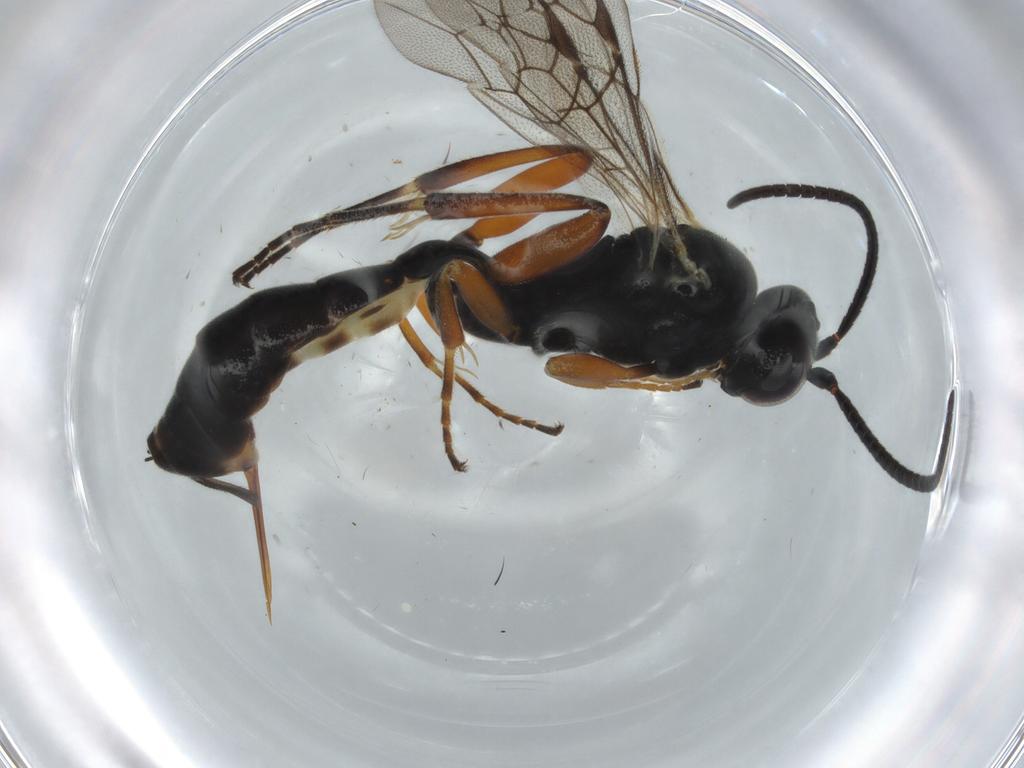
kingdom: Animalia
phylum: Arthropoda
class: Insecta
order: Hymenoptera
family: Ichneumonidae
